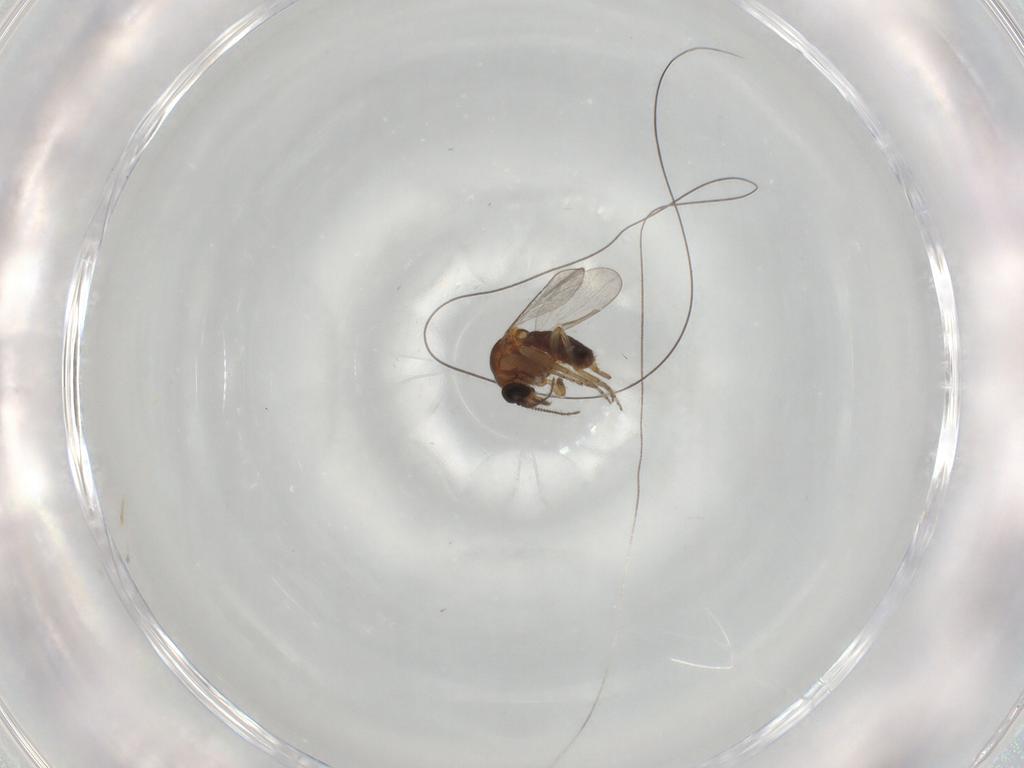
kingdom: Animalia
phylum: Arthropoda
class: Insecta
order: Diptera
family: Ceratopogonidae
